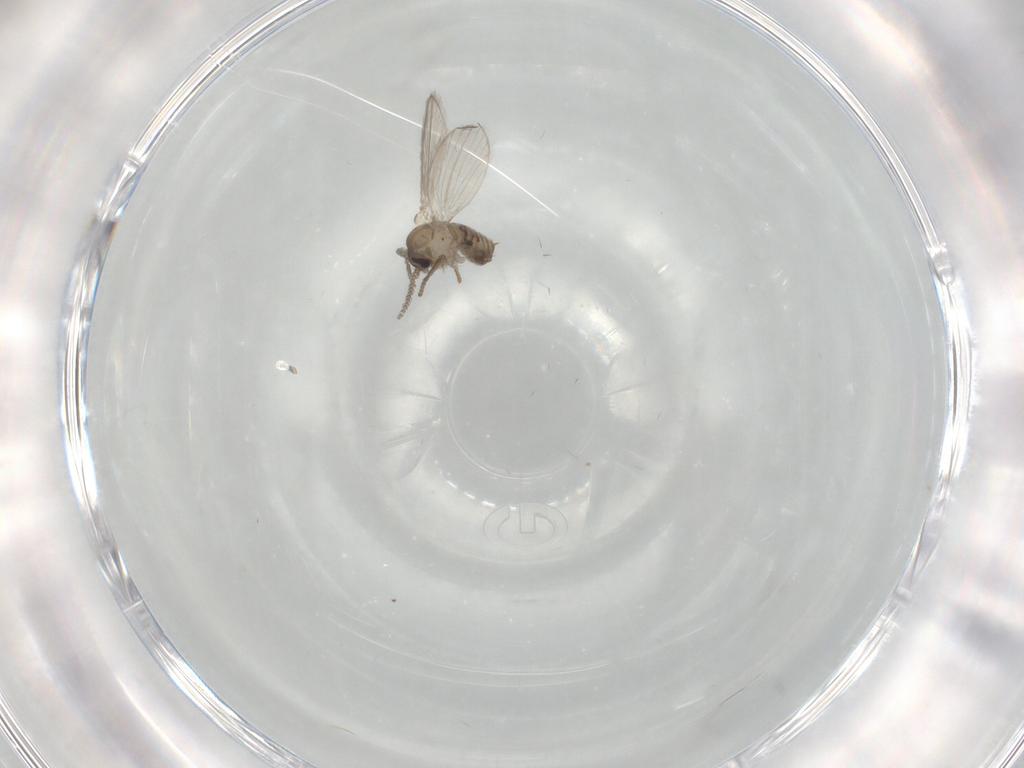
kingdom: Animalia
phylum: Arthropoda
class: Insecta
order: Diptera
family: Psychodidae
